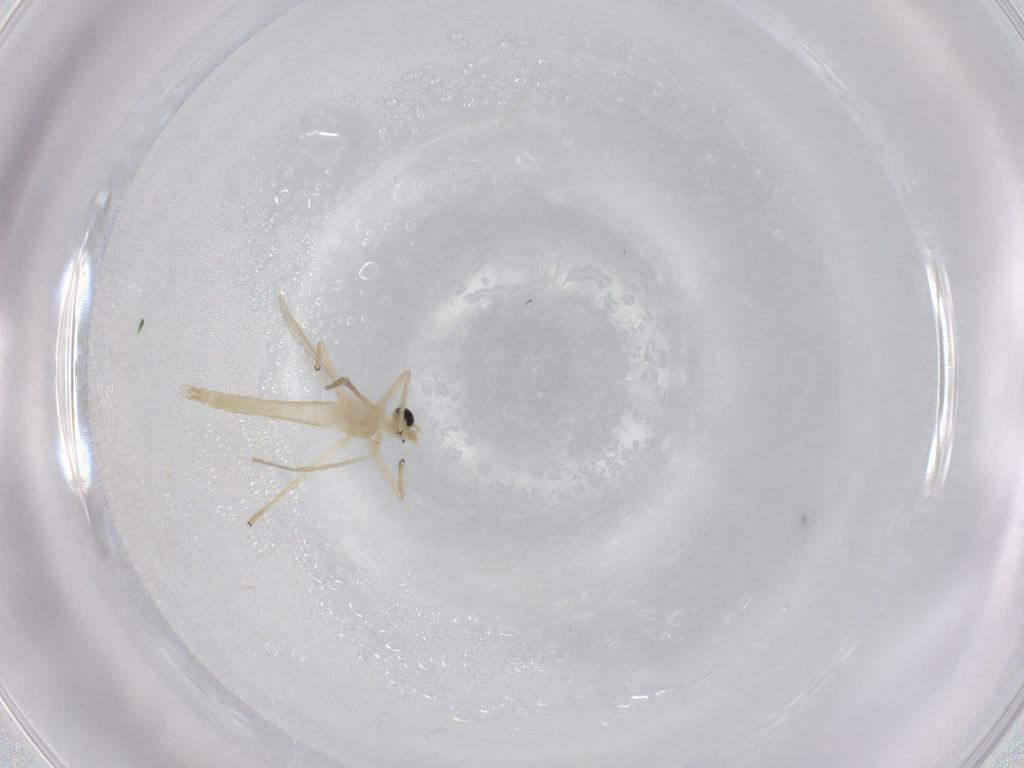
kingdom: Animalia
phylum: Arthropoda
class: Insecta
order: Diptera
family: Chironomidae
